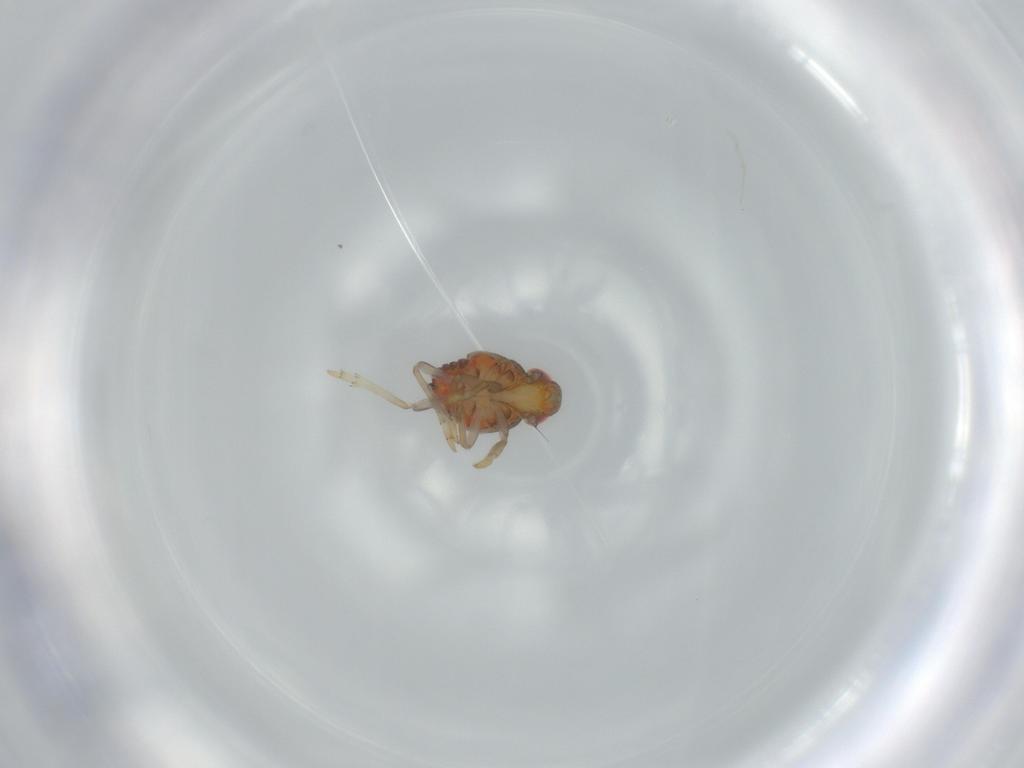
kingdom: Animalia
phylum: Arthropoda
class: Insecta
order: Hemiptera
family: Issidae
